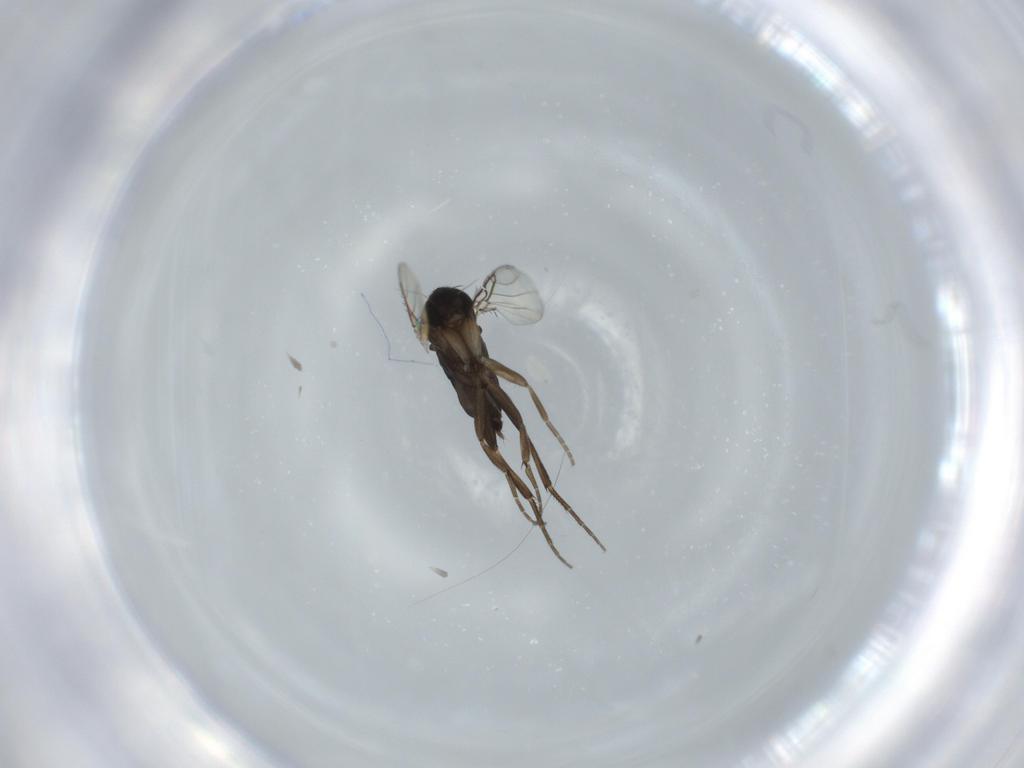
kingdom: Animalia
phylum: Arthropoda
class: Insecta
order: Diptera
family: Phoridae
